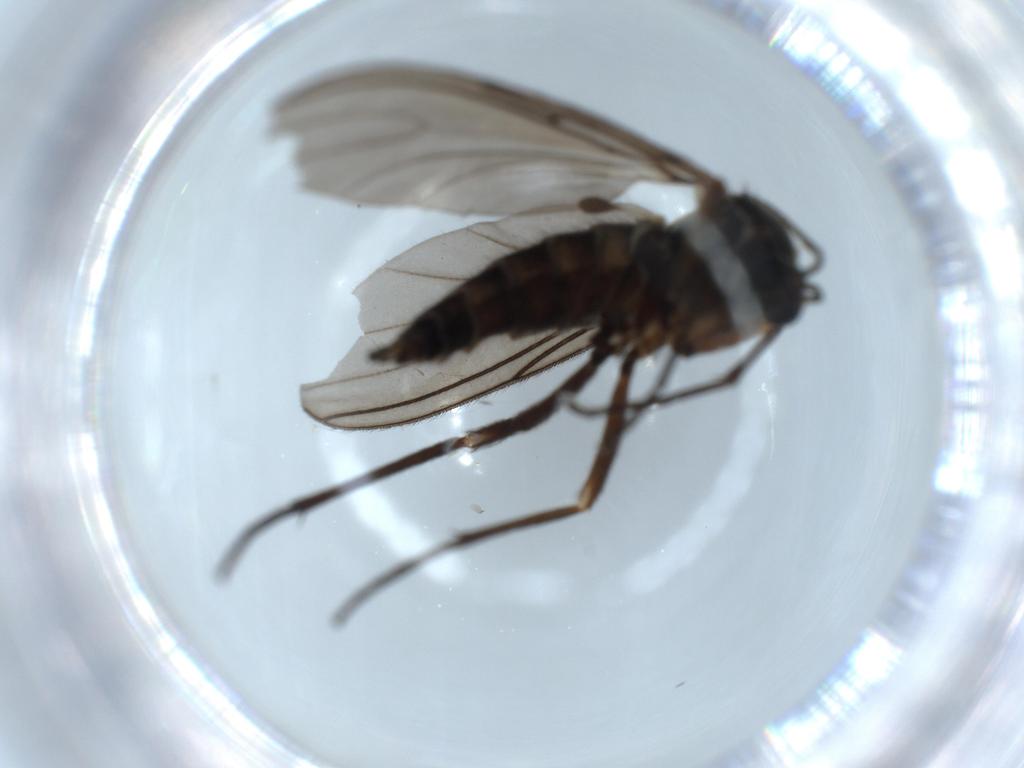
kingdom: Animalia
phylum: Arthropoda
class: Insecta
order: Diptera
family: Sciaridae
